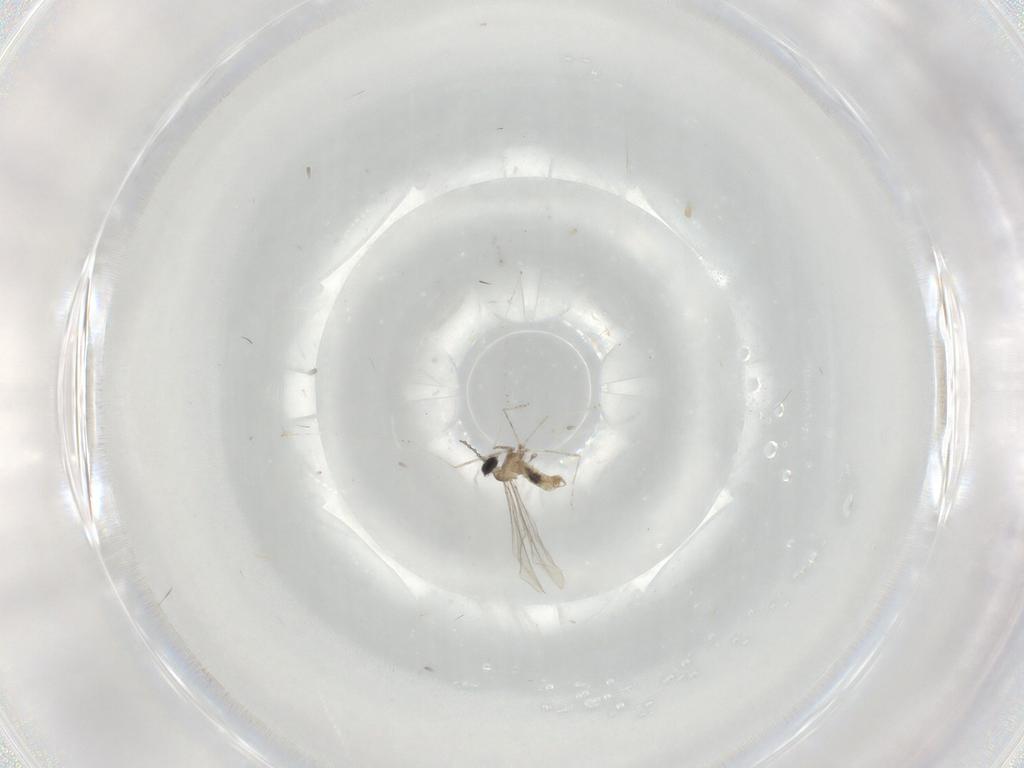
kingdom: Animalia
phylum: Arthropoda
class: Insecta
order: Diptera
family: Cecidomyiidae
